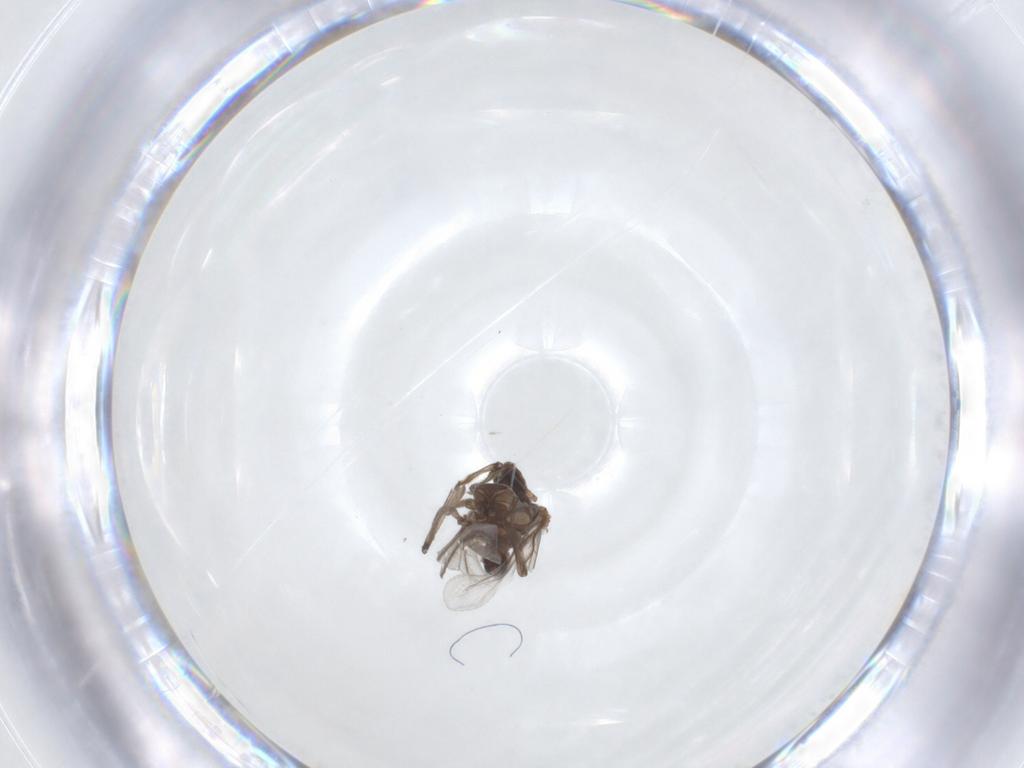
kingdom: Animalia
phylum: Arthropoda
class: Insecta
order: Neuroptera
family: Coniopterygidae
